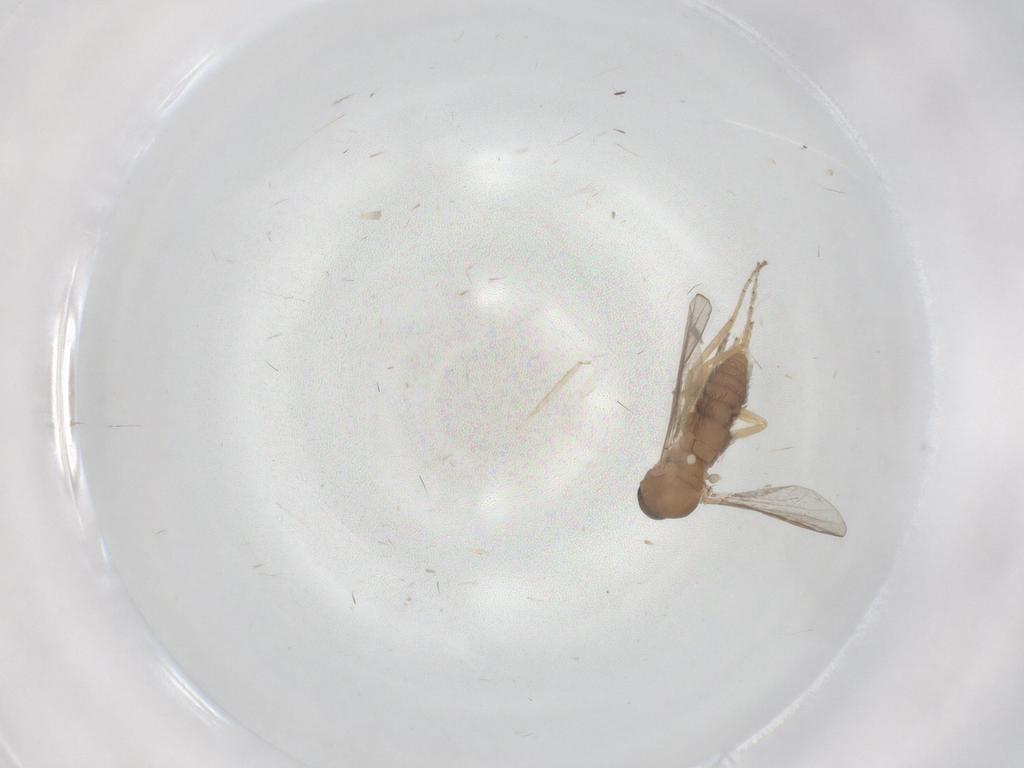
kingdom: Animalia
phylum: Arthropoda
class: Insecta
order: Diptera
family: Ceratopogonidae
